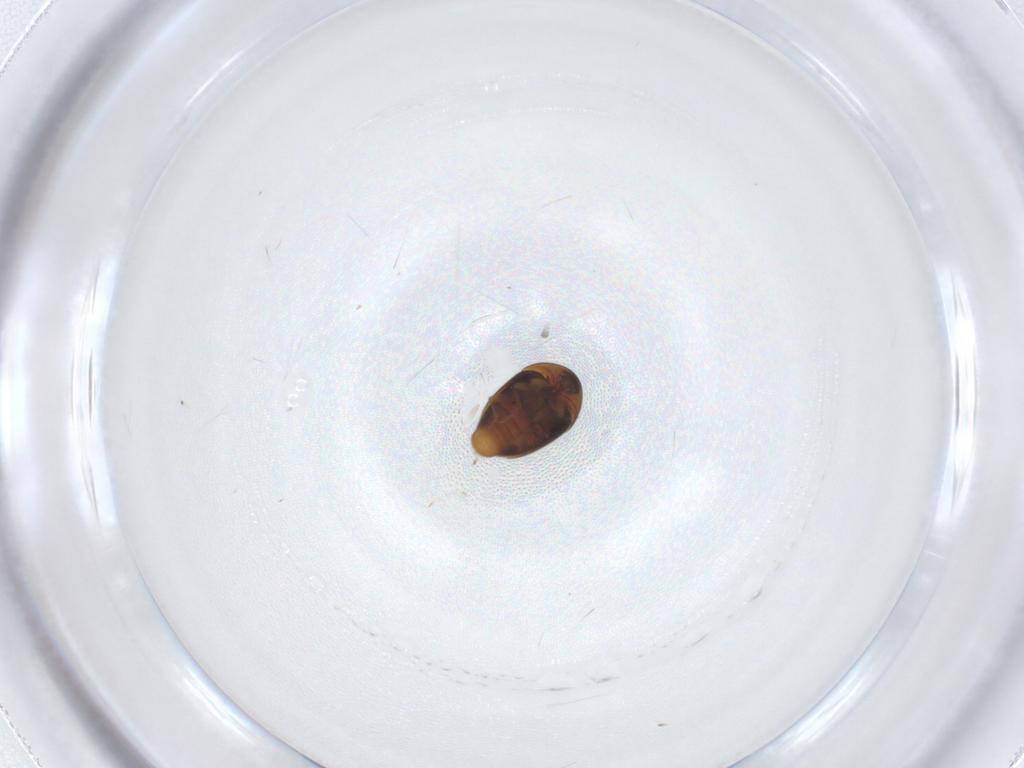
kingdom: Animalia
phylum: Arthropoda
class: Insecta
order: Coleoptera
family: Corylophidae
